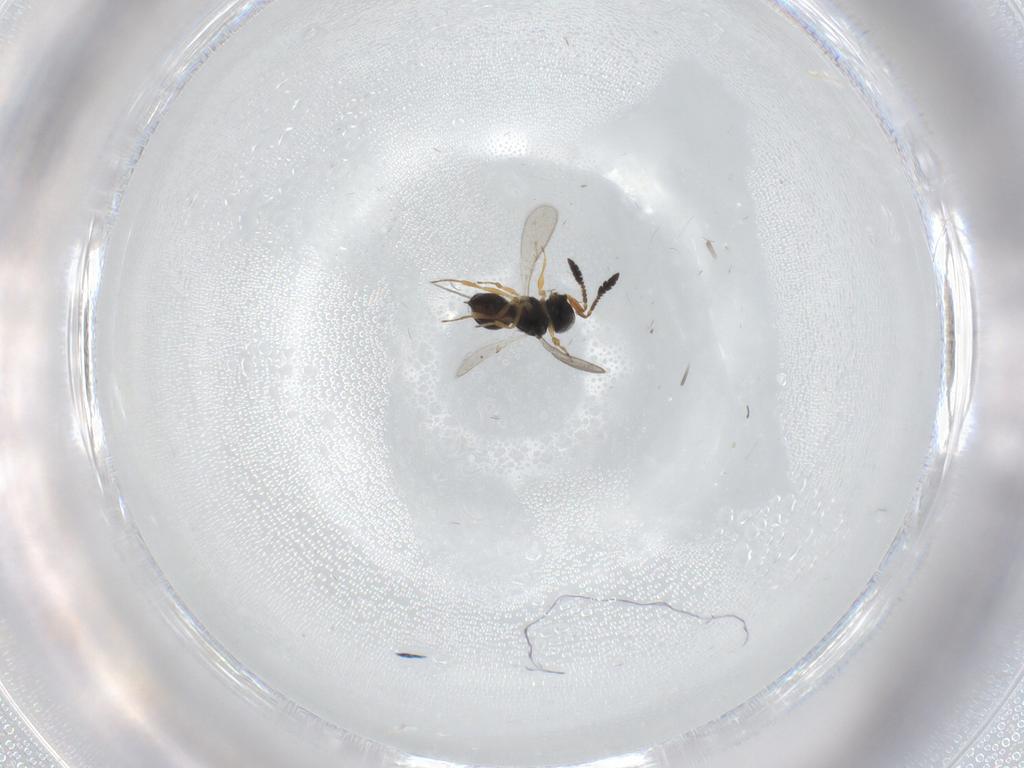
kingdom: Animalia
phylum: Arthropoda
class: Insecta
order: Hymenoptera
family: Scelionidae
